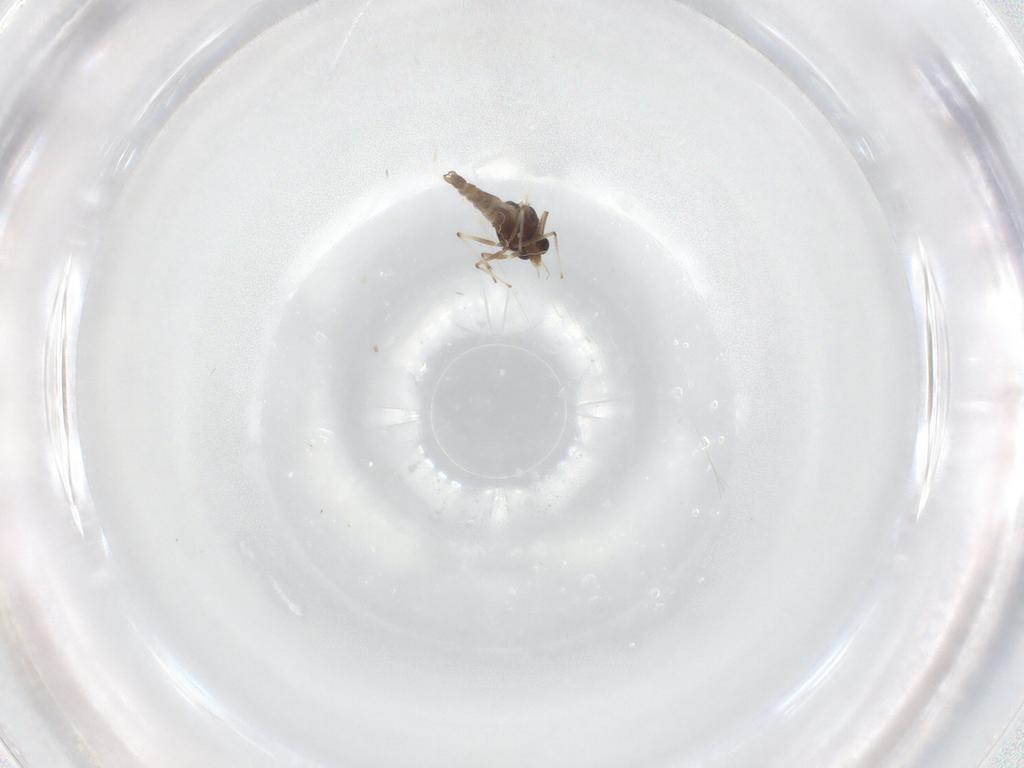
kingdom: Animalia
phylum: Arthropoda
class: Insecta
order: Diptera
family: Chironomidae
